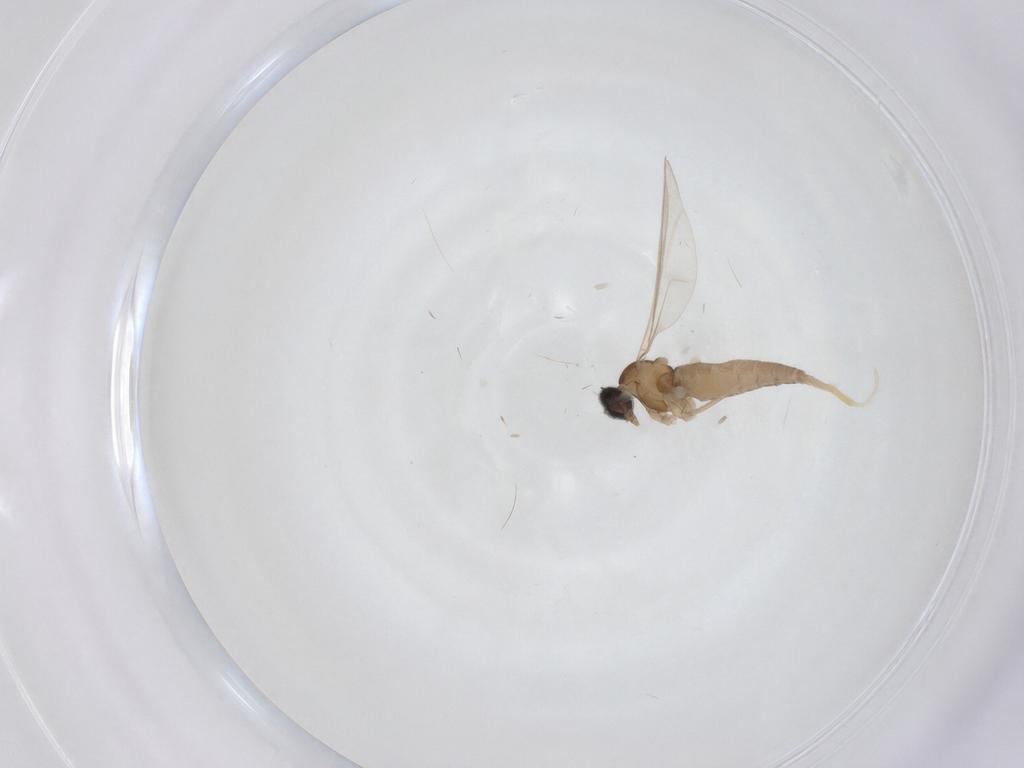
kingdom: Animalia
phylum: Arthropoda
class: Insecta
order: Diptera
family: Cecidomyiidae
